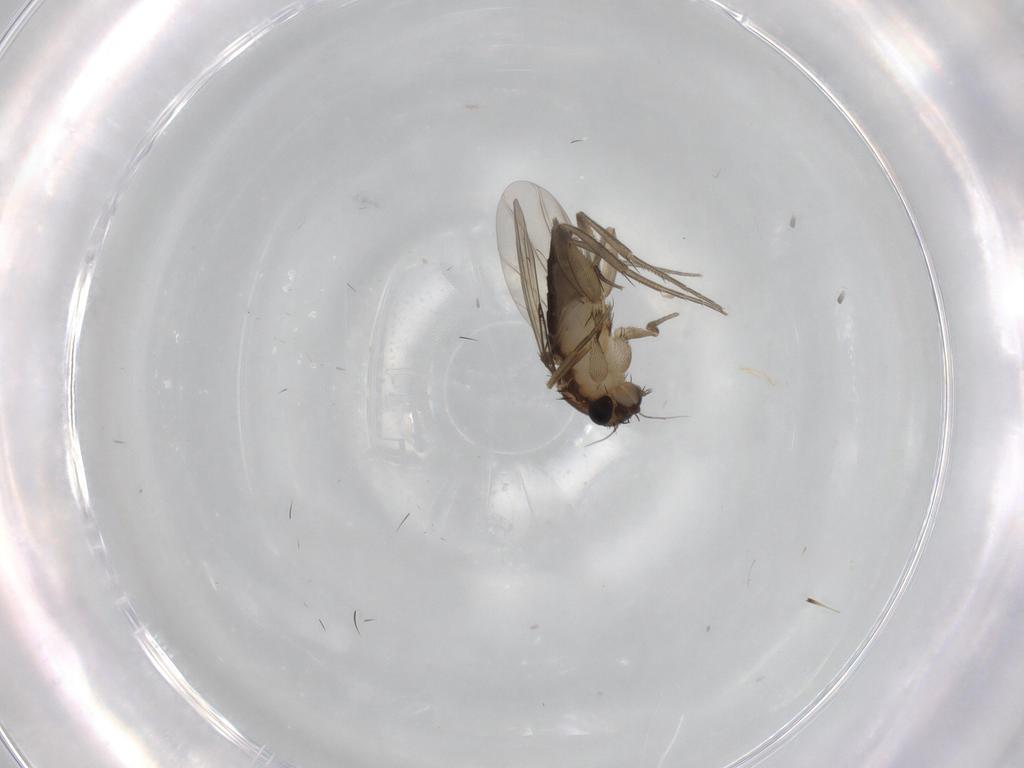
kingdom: Animalia
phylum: Arthropoda
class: Insecta
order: Diptera
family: Phoridae
